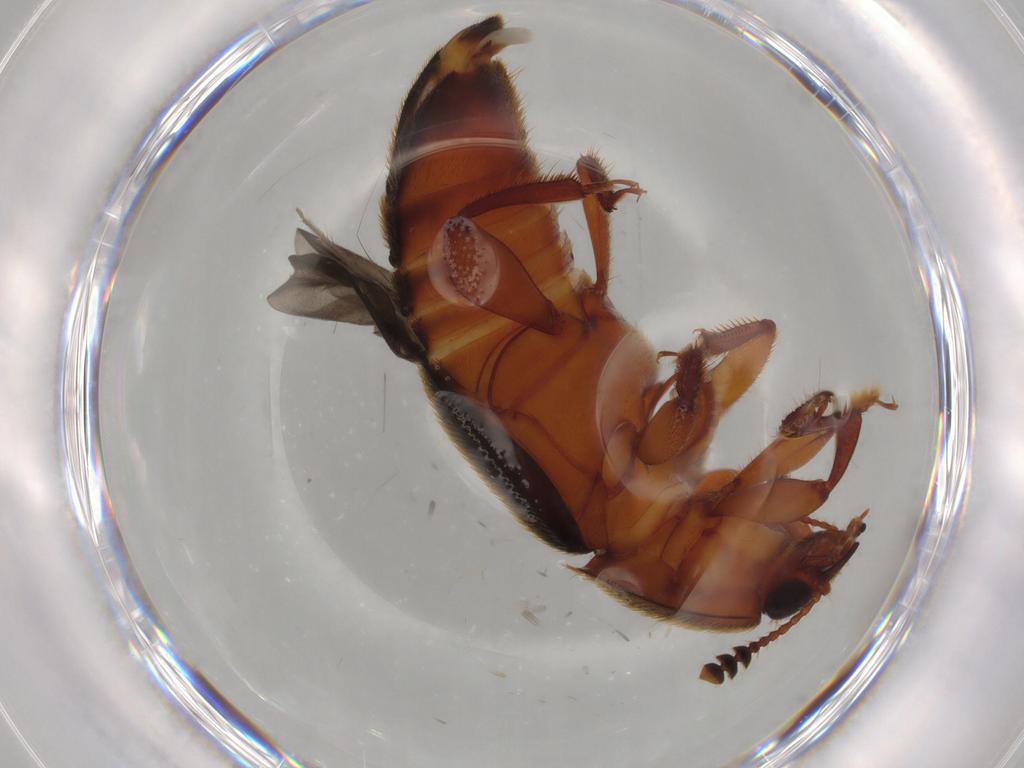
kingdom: Animalia
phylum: Arthropoda
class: Insecta
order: Coleoptera
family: Nitidulidae
